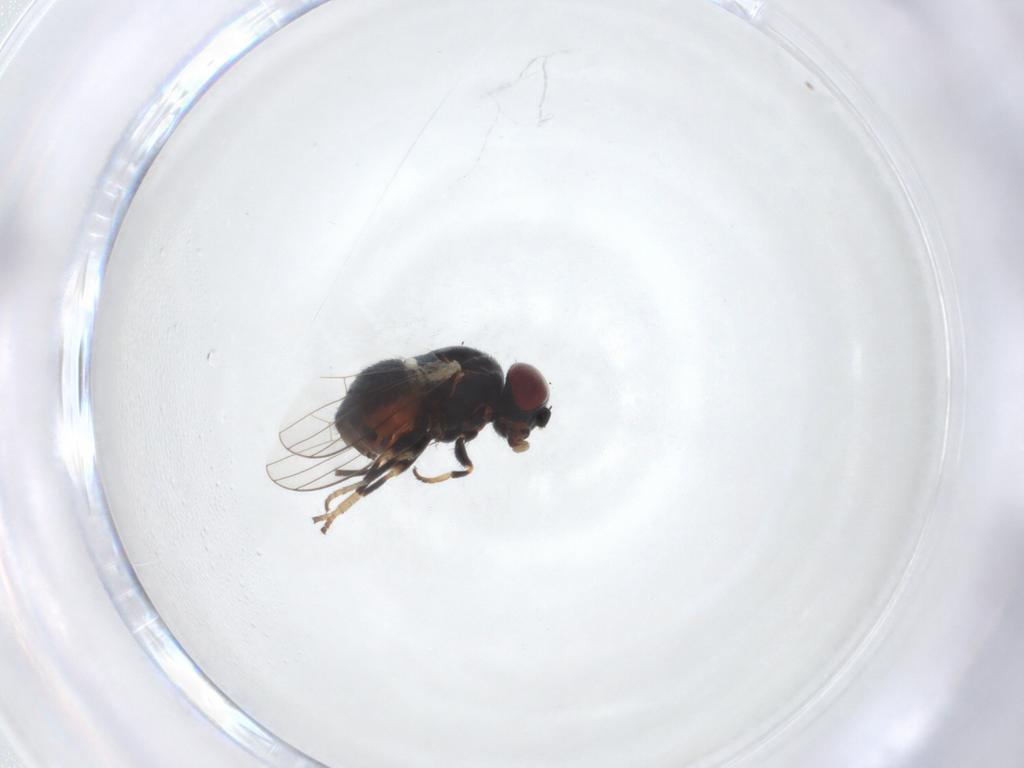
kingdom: Animalia
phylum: Arthropoda
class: Insecta
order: Diptera
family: Chamaemyiidae
